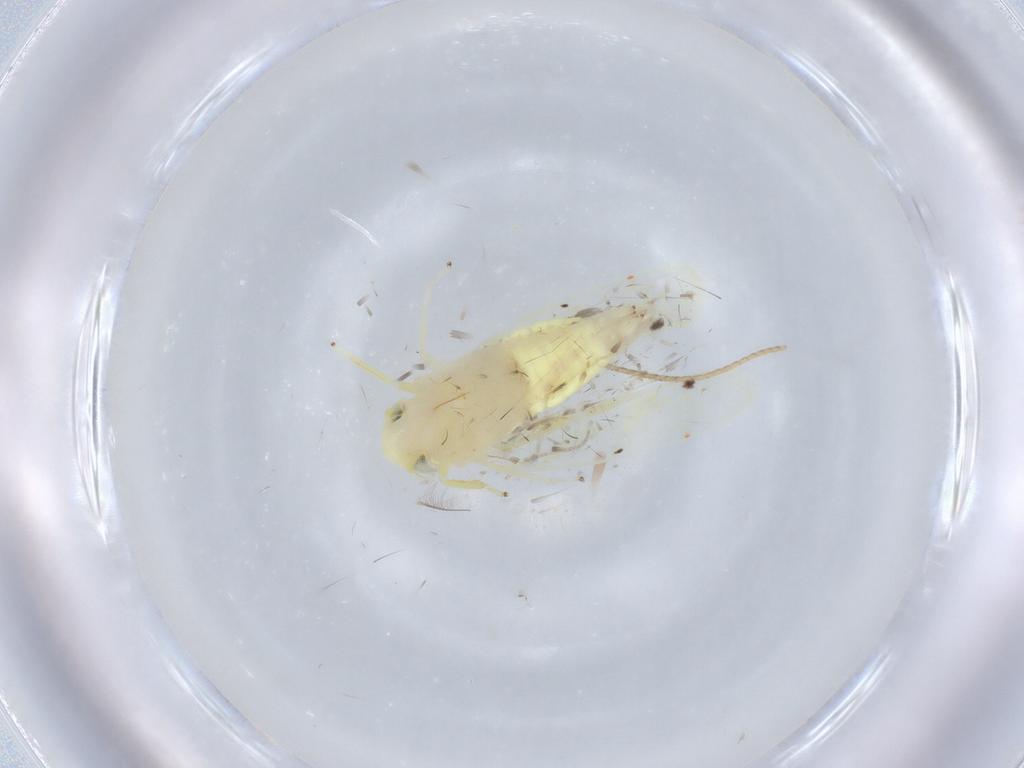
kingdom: Animalia
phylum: Arthropoda
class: Insecta
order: Hemiptera
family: Cicadellidae
